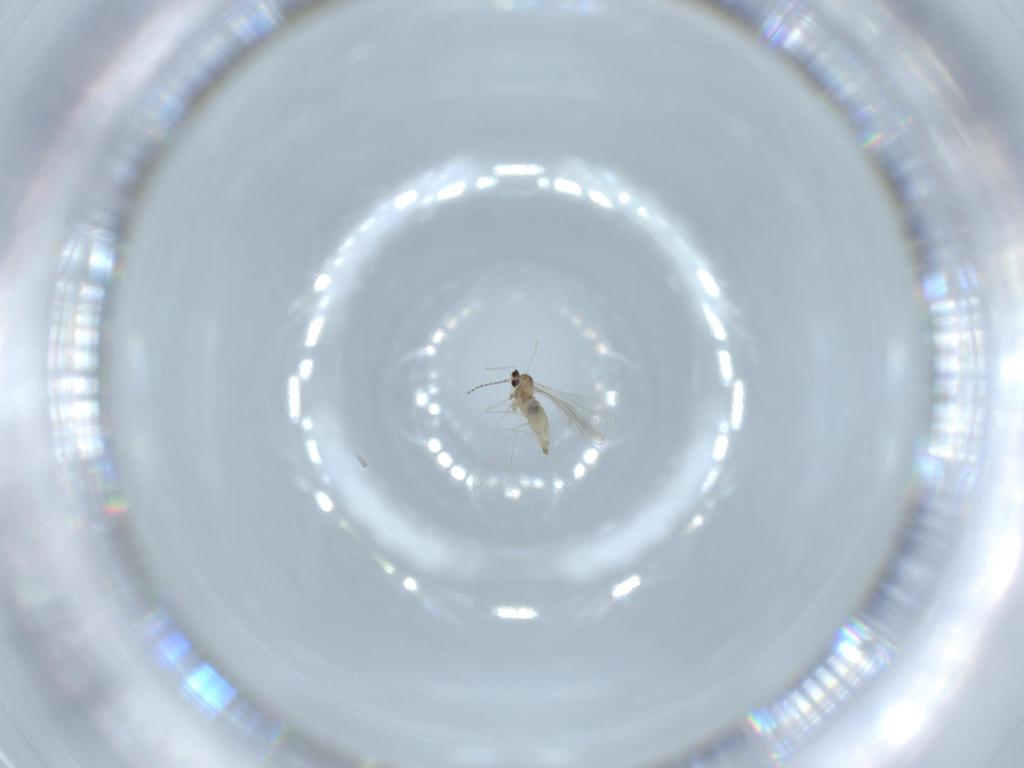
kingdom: Animalia
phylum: Arthropoda
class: Insecta
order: Diptera
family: Cecidomyiidae
